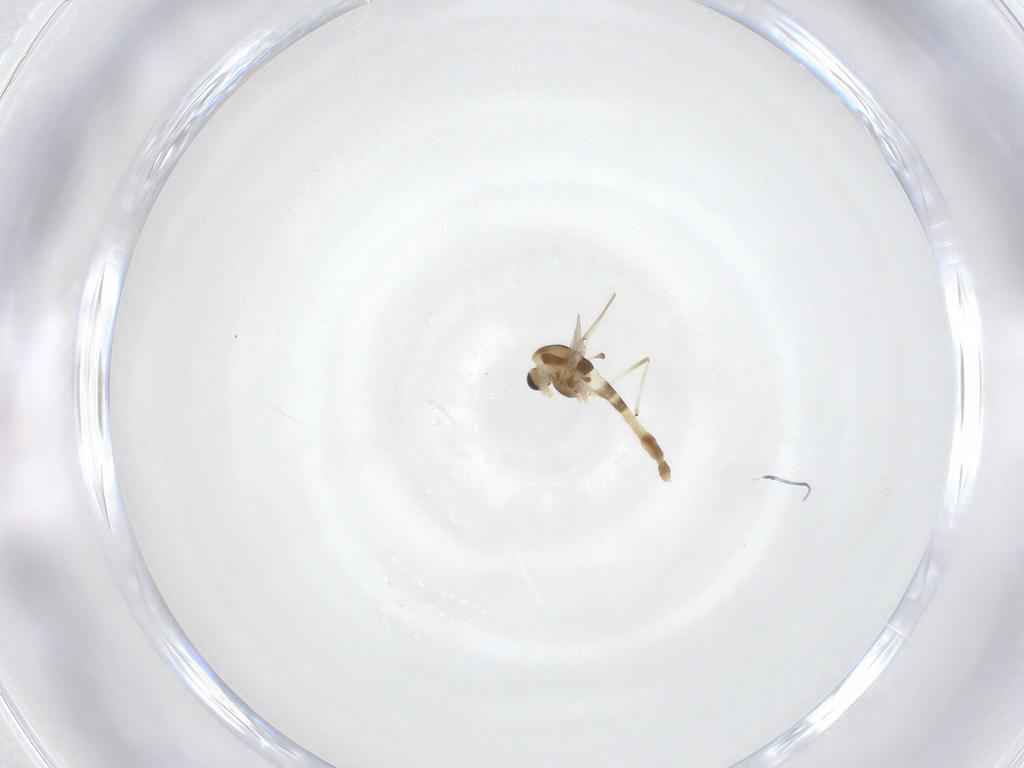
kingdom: Animalia
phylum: Arthropoda
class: Insecta
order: Diptera
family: Chironomidae
